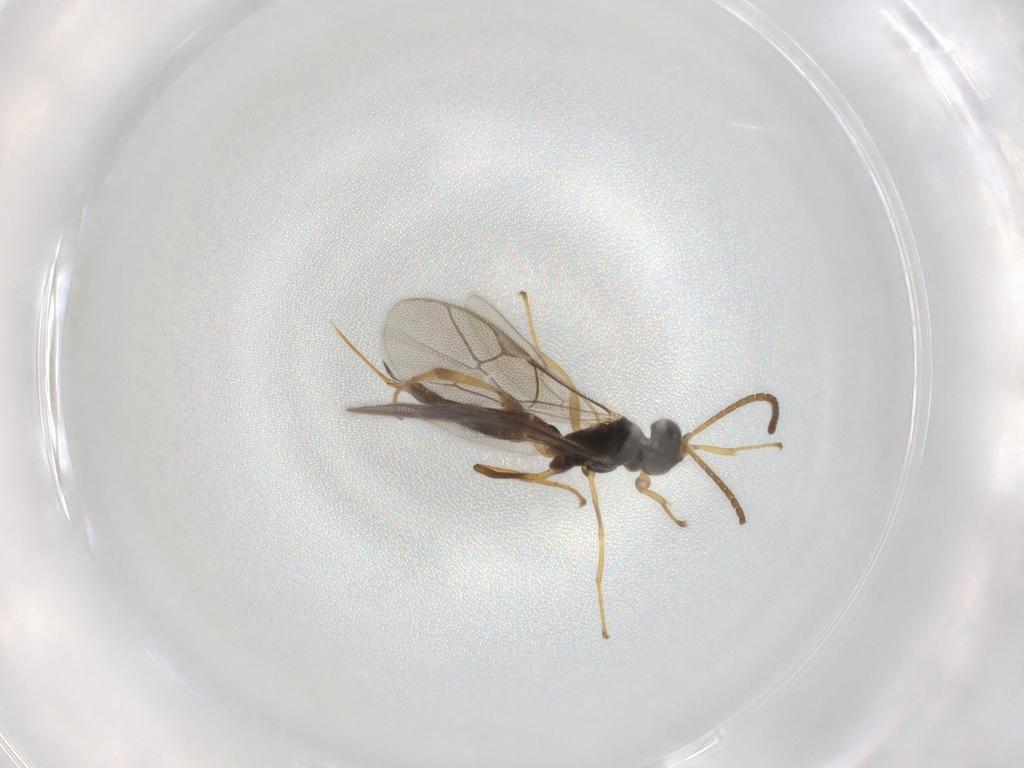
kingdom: Animalia
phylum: Arthropoda
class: Insecta
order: Hymenoptera
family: Ichneumonidae
